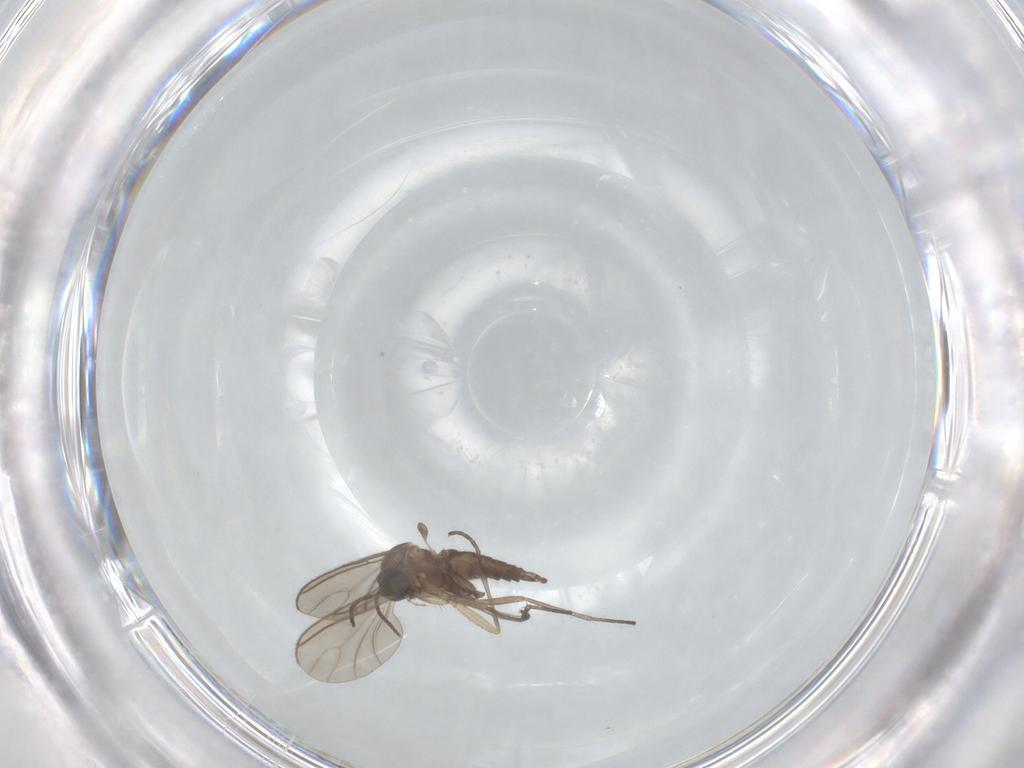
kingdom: Animalia
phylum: Arthropoda
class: Insecta
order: Diptera
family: Sciaridae
